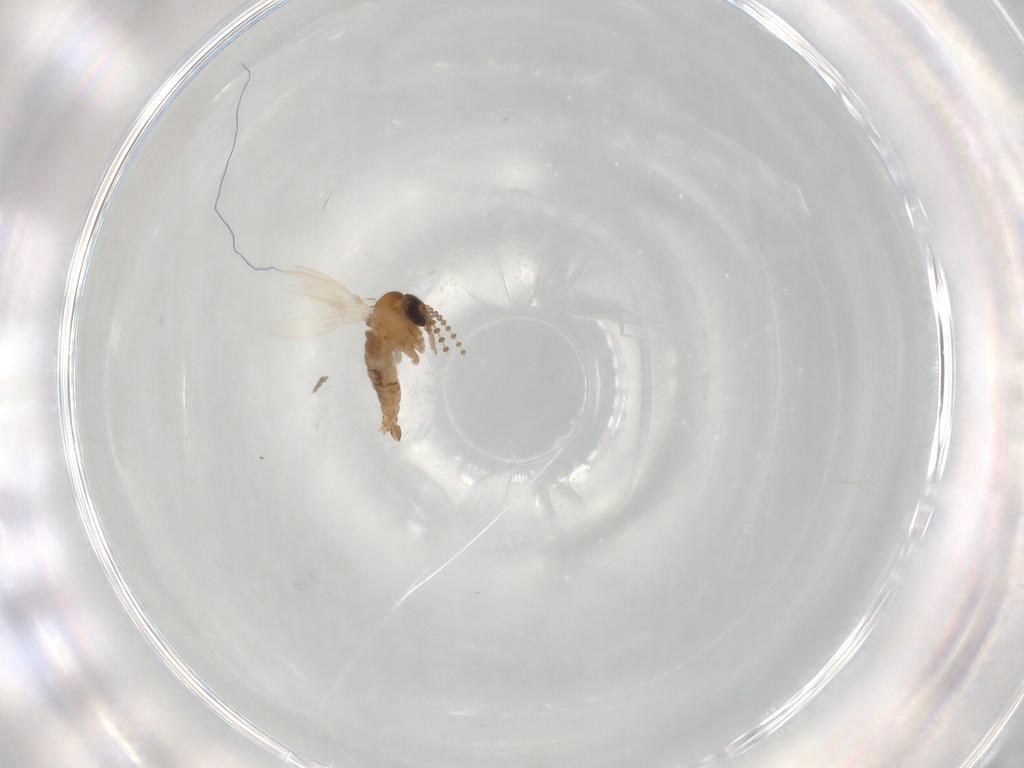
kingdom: Animalia
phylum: Arthropoda
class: Insecta
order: Diptera
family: Psychodidae
